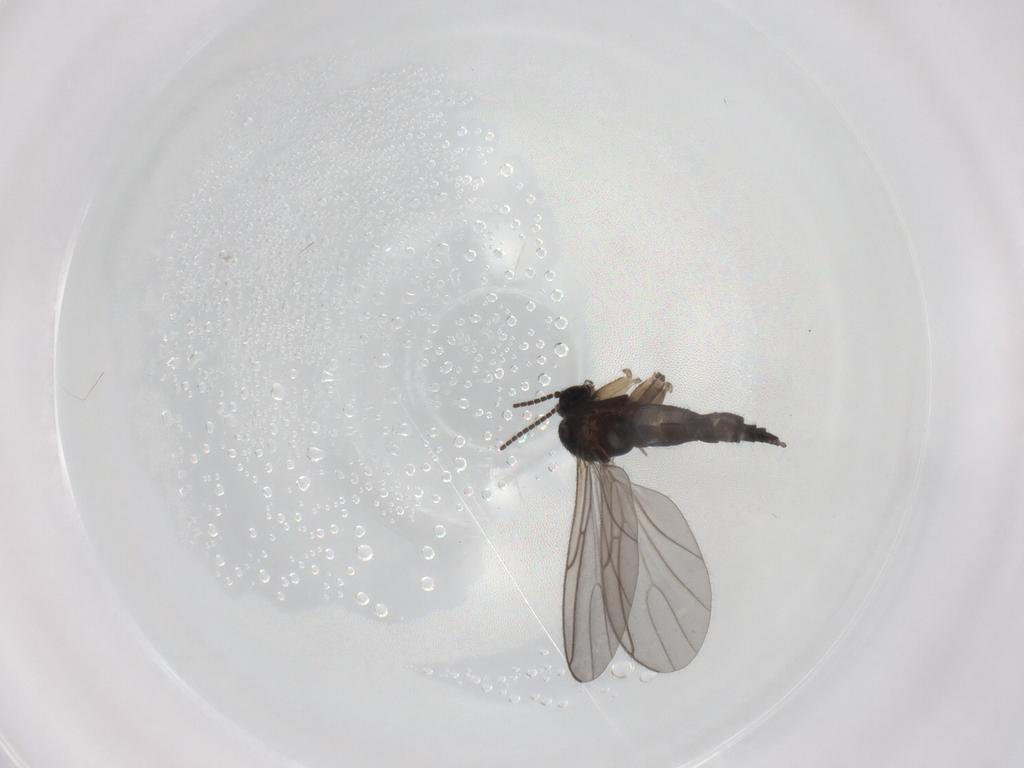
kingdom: Animalia
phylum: Arthropoda
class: Insecta
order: Diptera
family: Sciaridae
